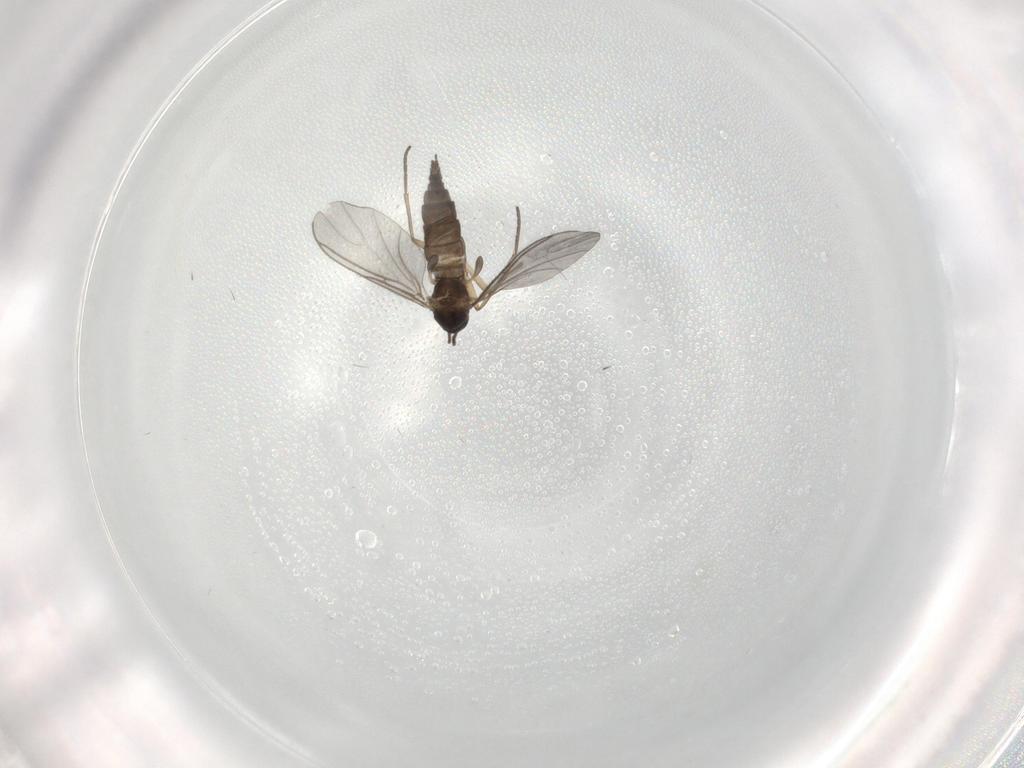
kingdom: Animalia
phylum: Arthropoda
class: Insecta
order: Diptera
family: Sciaridae
